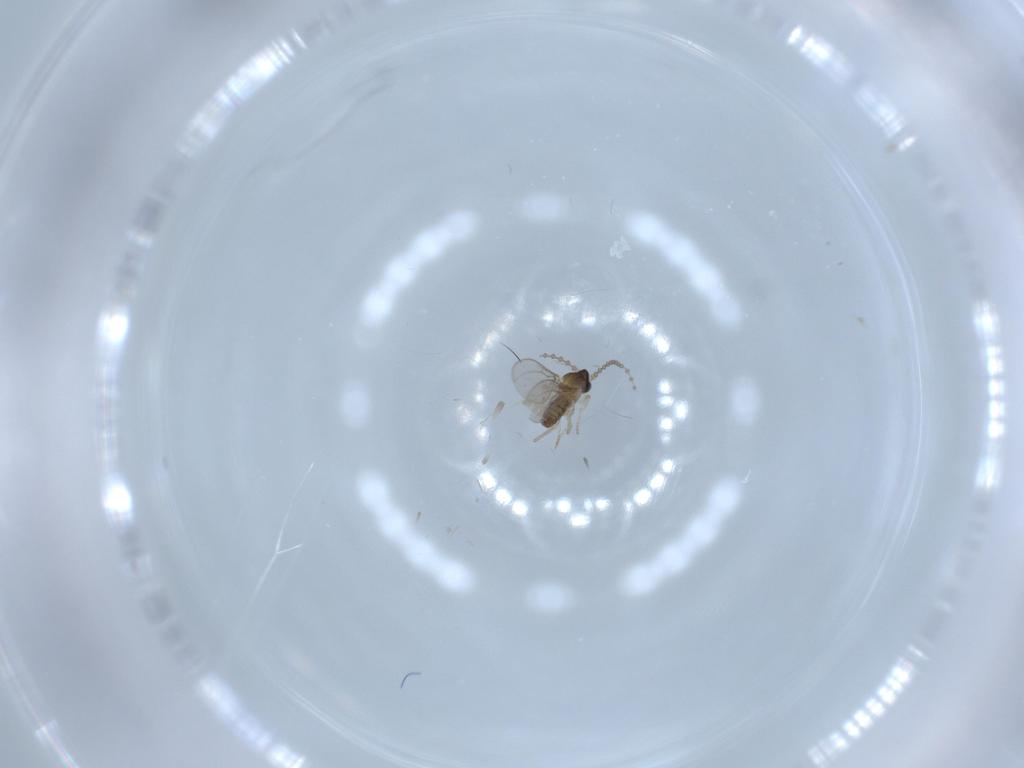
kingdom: Animalia
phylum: Arthropoda
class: Insecta
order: Diptera
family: Cecidomyiidae
